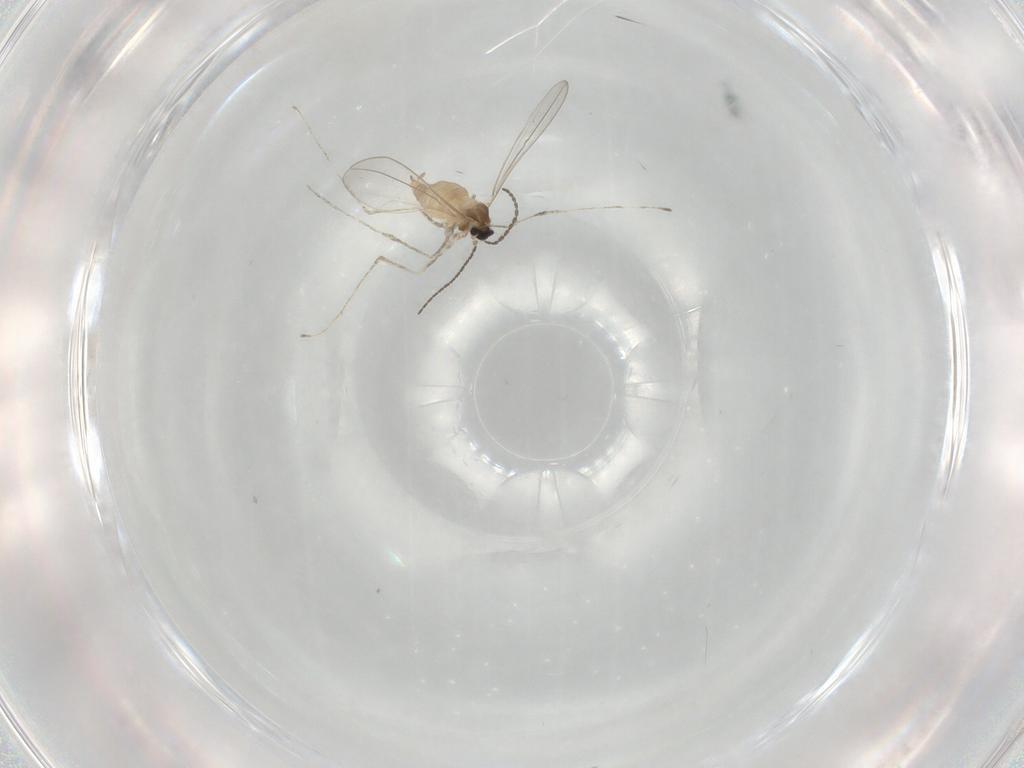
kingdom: Animalia
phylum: Arthropoda
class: Insecta
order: Diptera
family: Cecidomyiidae
